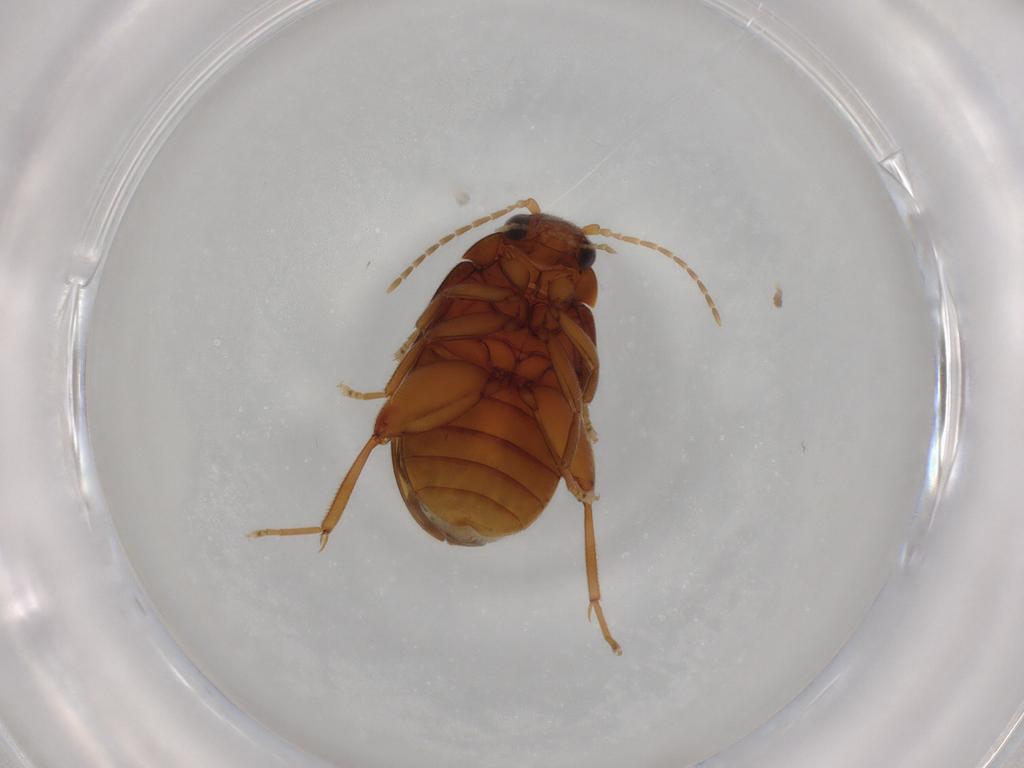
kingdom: Animalia
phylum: Arthropoda
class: Insecta
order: Coleoptera
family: Scirtidae
